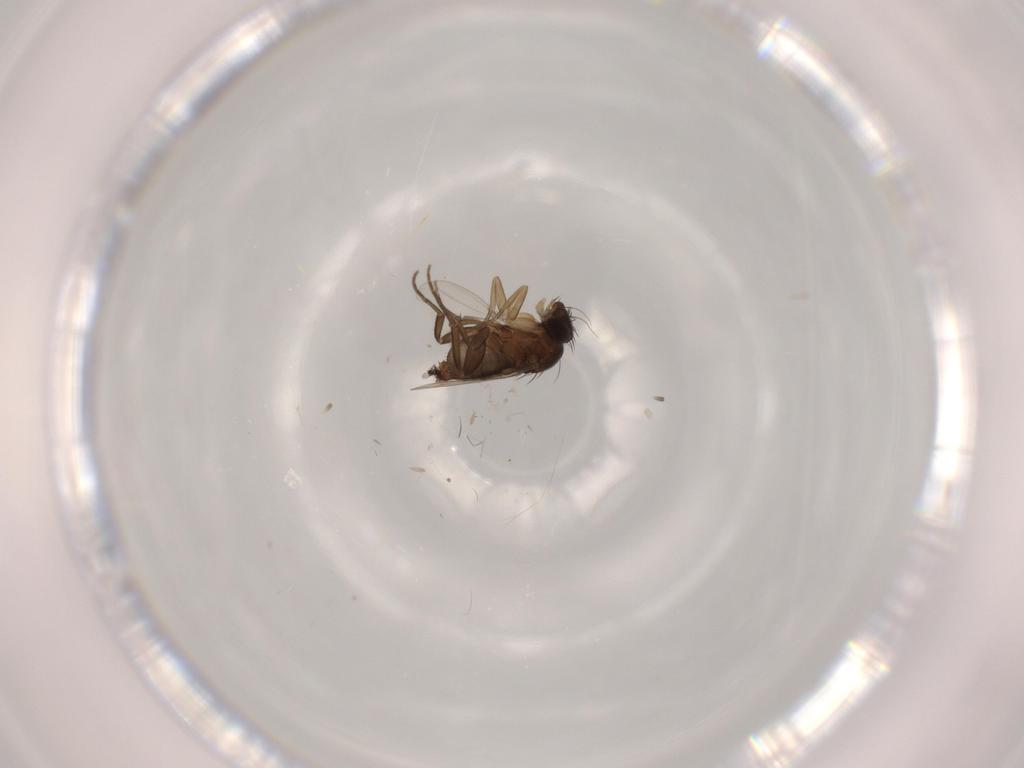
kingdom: Animalia
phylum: Arthropoda
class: Insecta
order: Diptera
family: Phoridae
